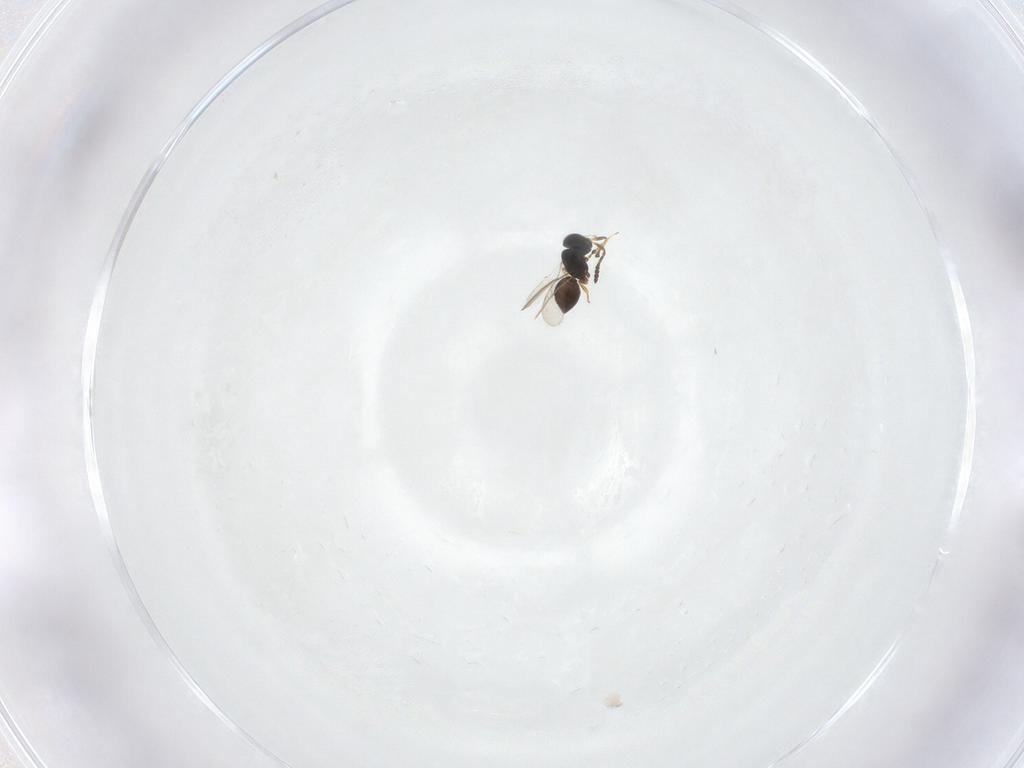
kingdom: Animalia
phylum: Arthropoda
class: Insecta
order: Hymenoptera
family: Scelionidae
